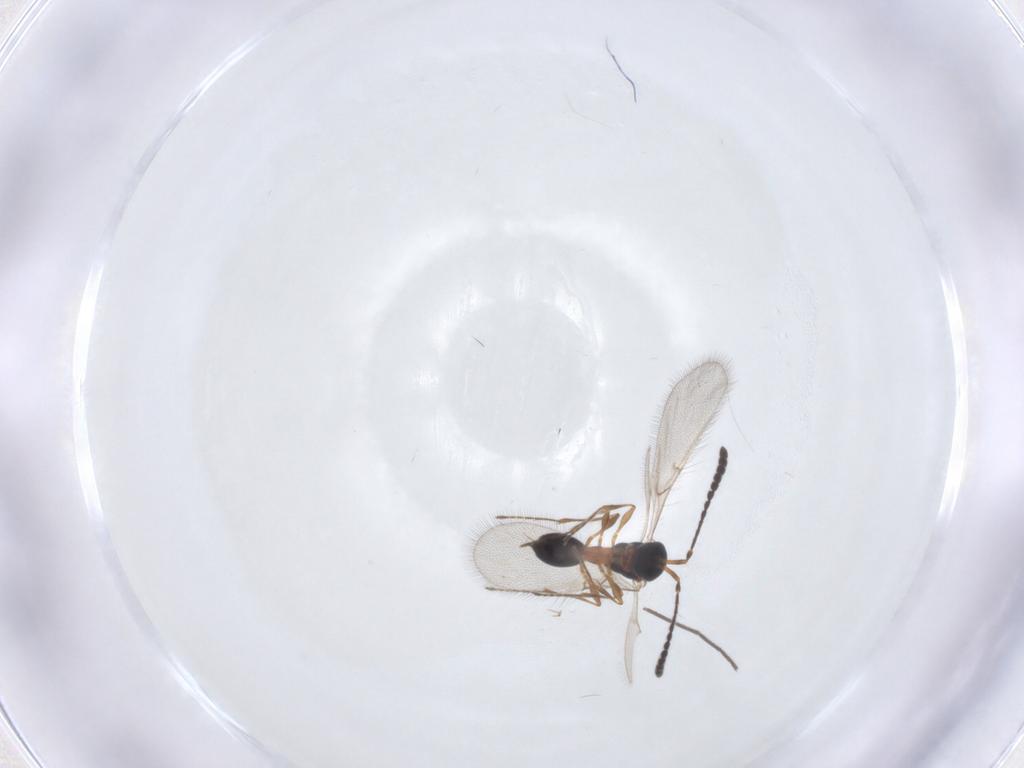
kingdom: Animalia
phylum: Arthropoda
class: Insecta
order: Hymenoptera
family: Diapriidae
